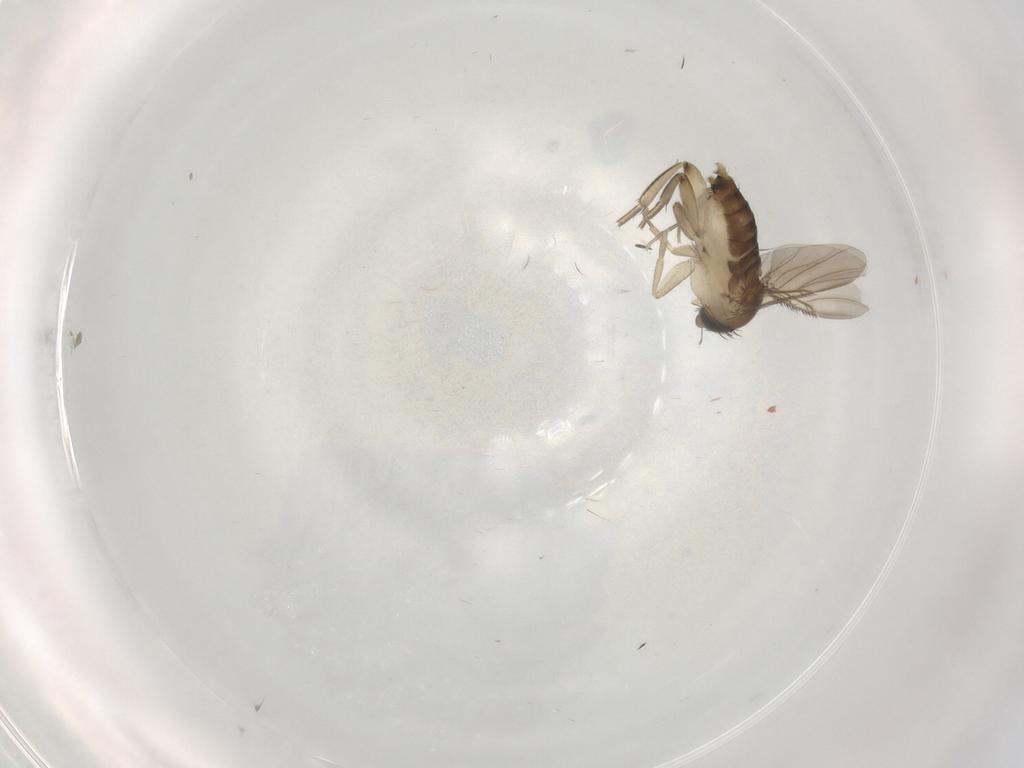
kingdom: Animalia
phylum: Arthropoda
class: Insecta
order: Diptera
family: Phoridae
